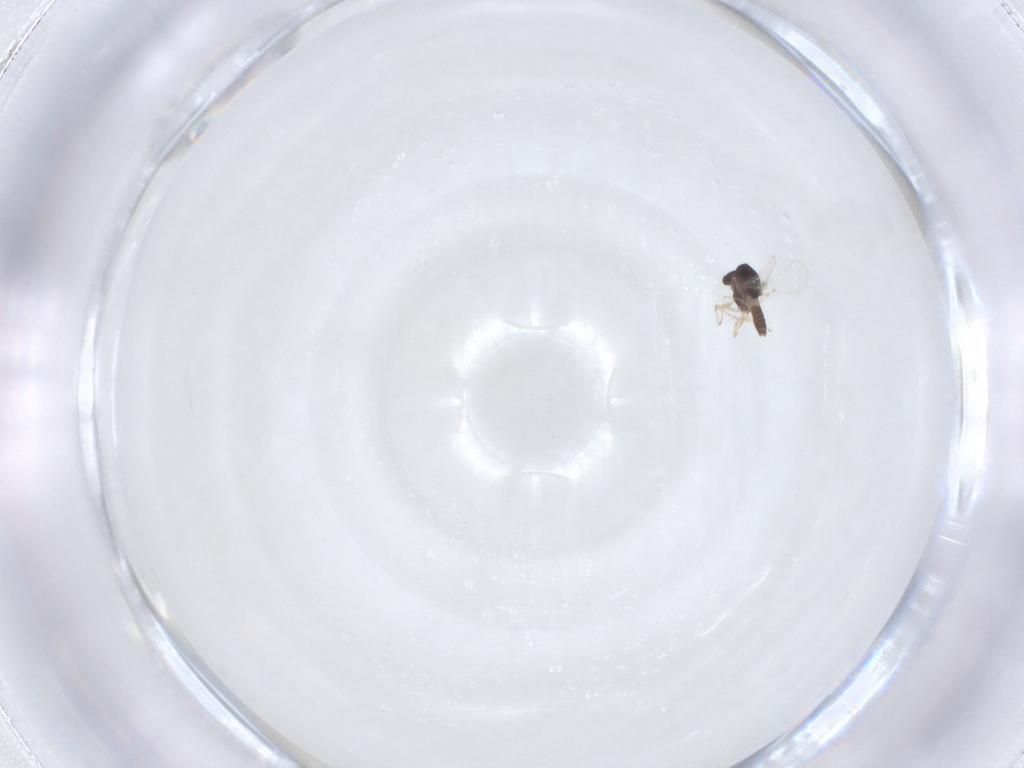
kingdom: Animalia
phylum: Arthropoda
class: Insecta
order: Diptera
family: Chironomidae
